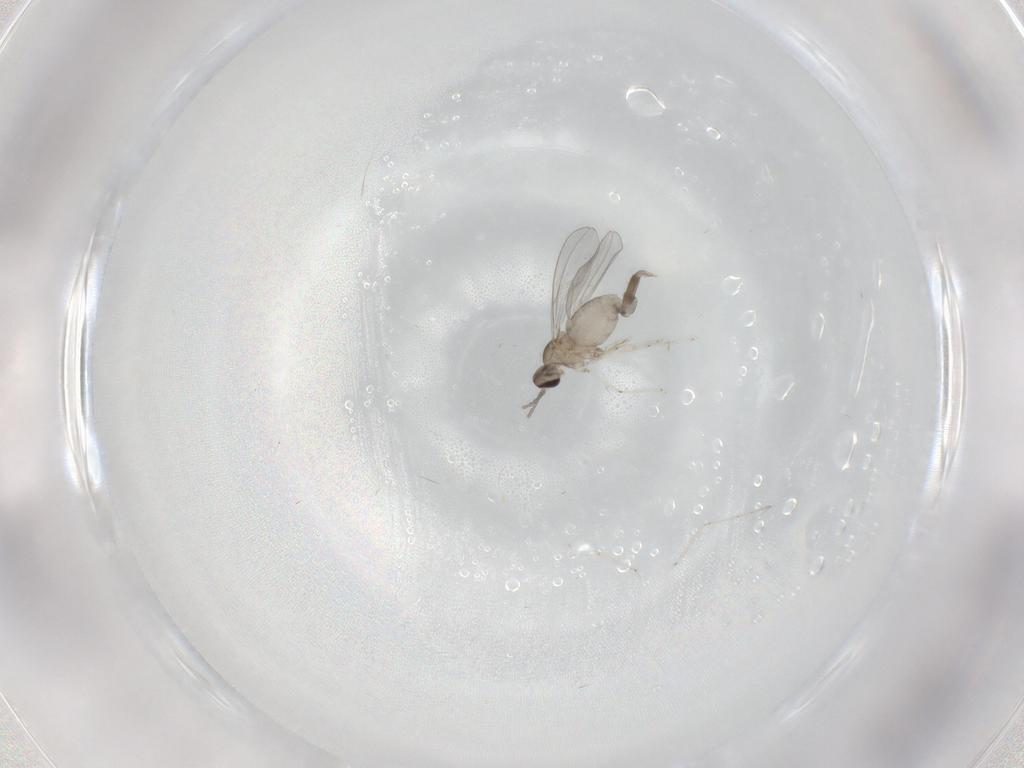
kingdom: Animalia
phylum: Arthropoda
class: Insecta
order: Diptera
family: Cecidomyiidae
